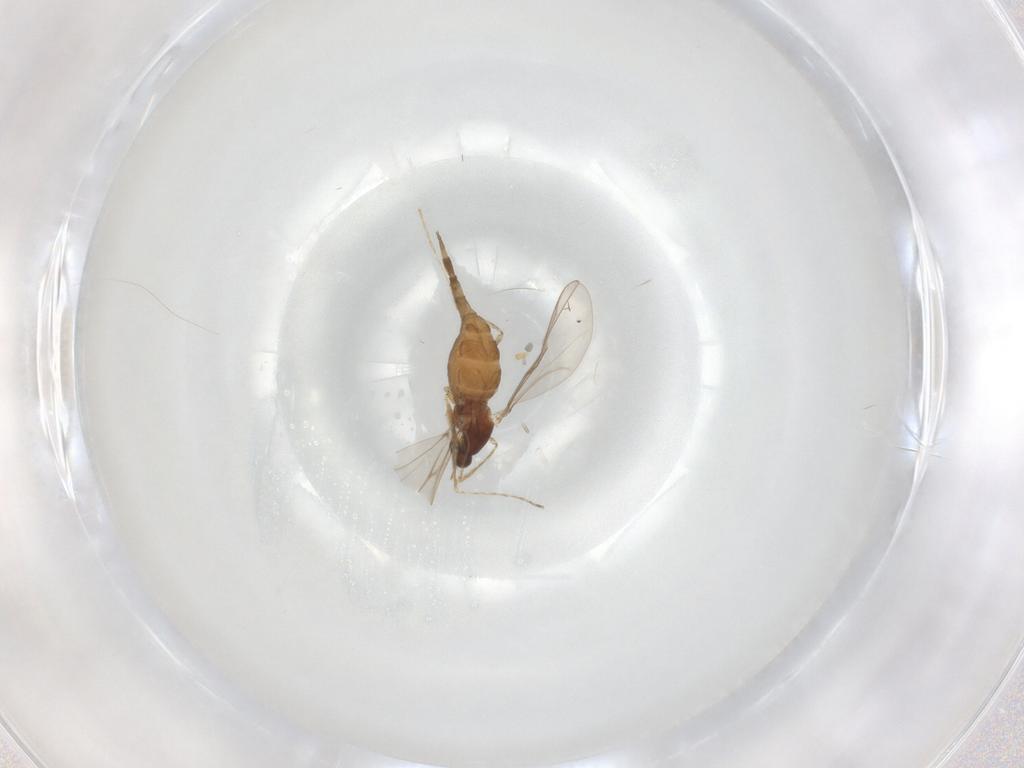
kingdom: Animalia
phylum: Arthropoda
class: Insecta
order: Diptera
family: Cecidomyiidae
